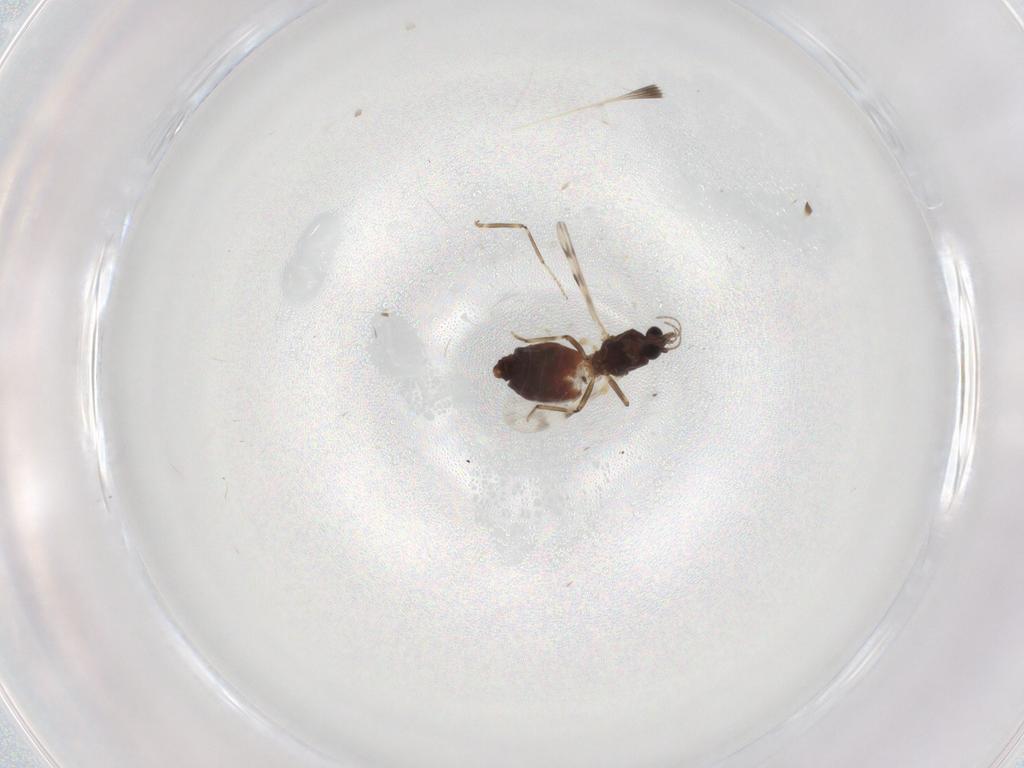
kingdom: Animalia
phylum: Arthropoda
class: Insecta
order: Diptera
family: Ceratopogonidae
